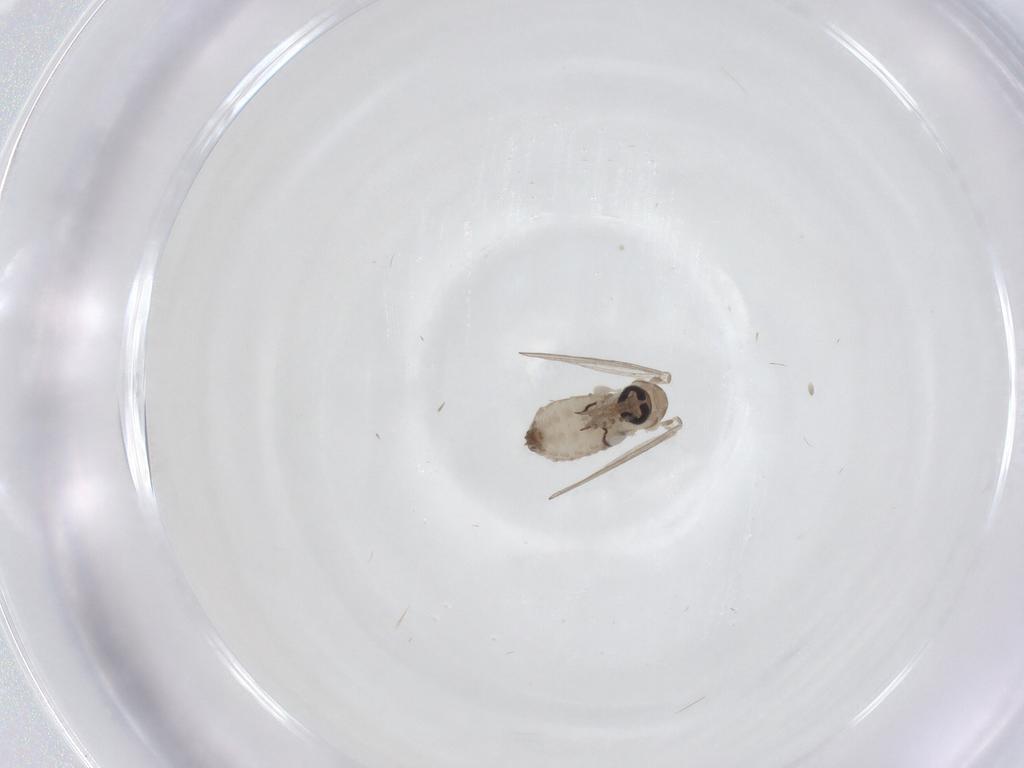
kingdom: Animalia
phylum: Arthropoda
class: Insecta
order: Diptera
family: Psychodidae
